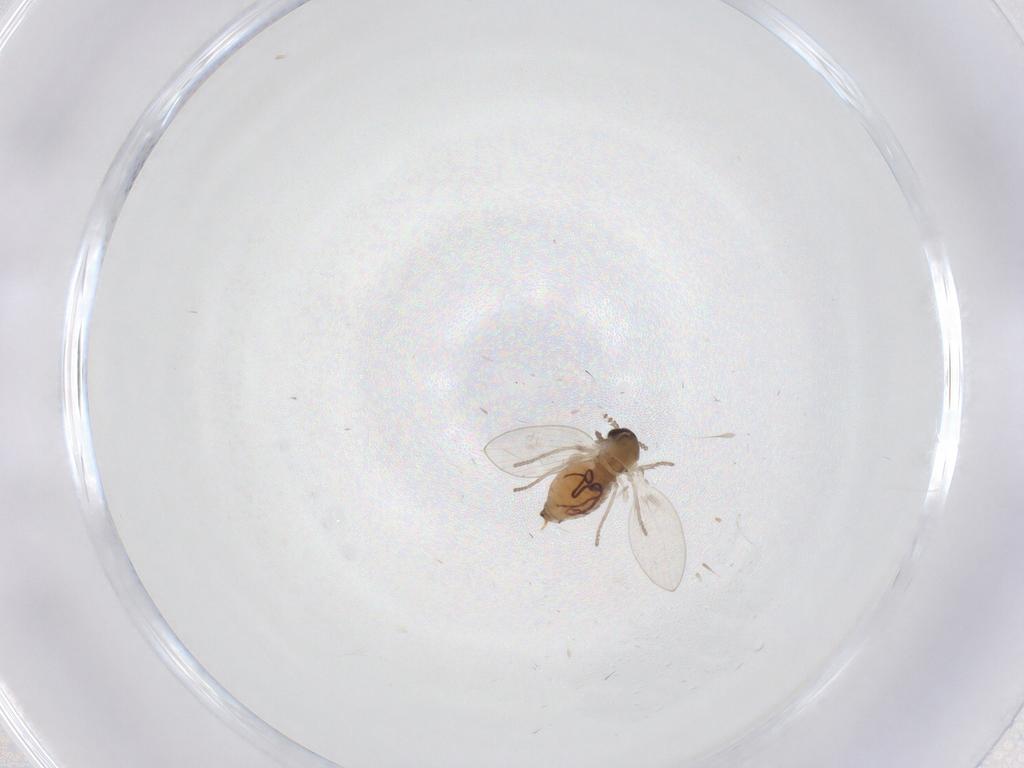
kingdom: Animalia
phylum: Arthropoda
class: Insecta
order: Diptera
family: Psychodidae
